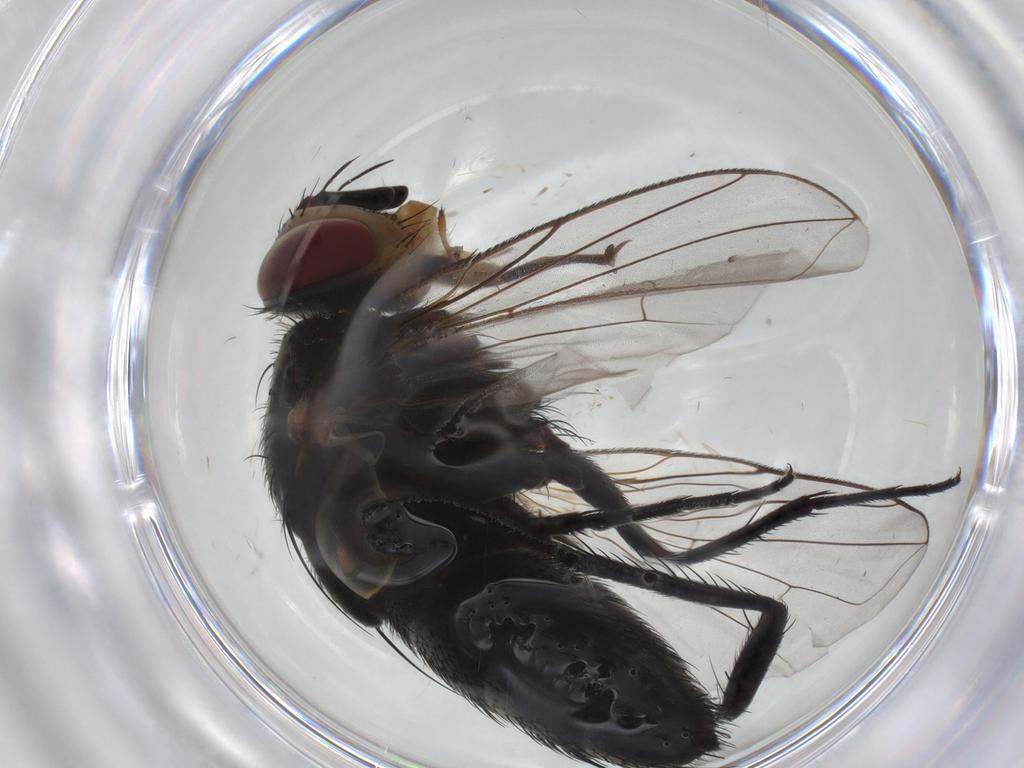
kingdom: Animalia
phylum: Arthropoda
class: Insecta
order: Diptera
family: Tachinidae
